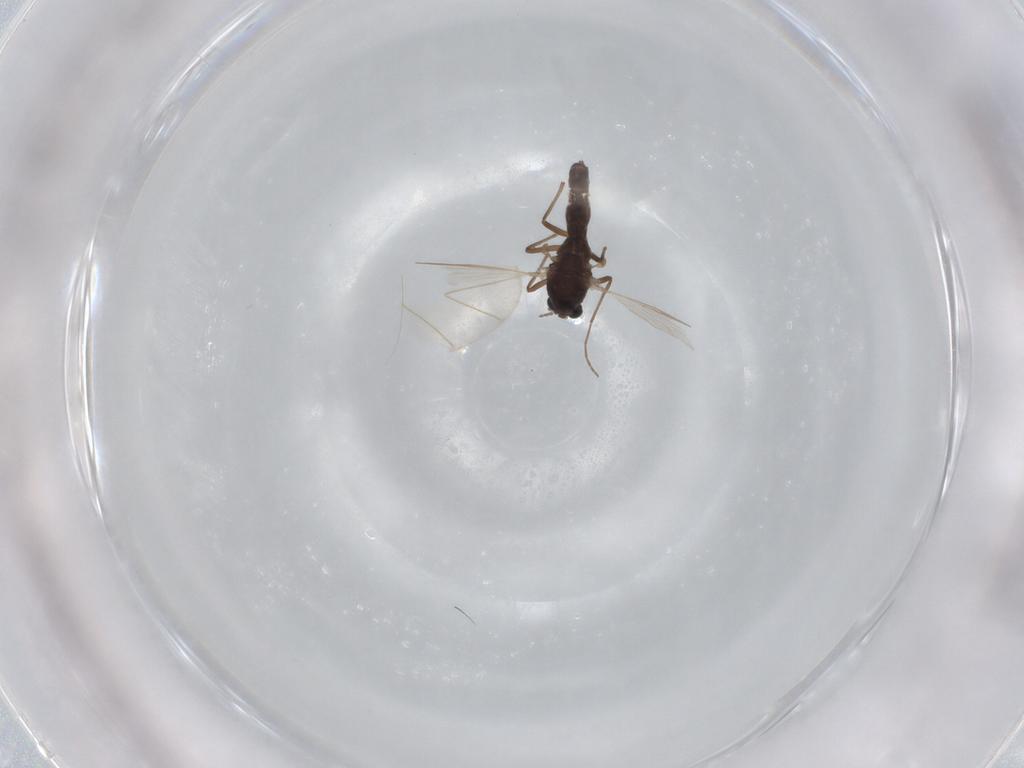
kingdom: Animalia
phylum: Arthropoda
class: Insecta
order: Diptera
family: Chironomidae
